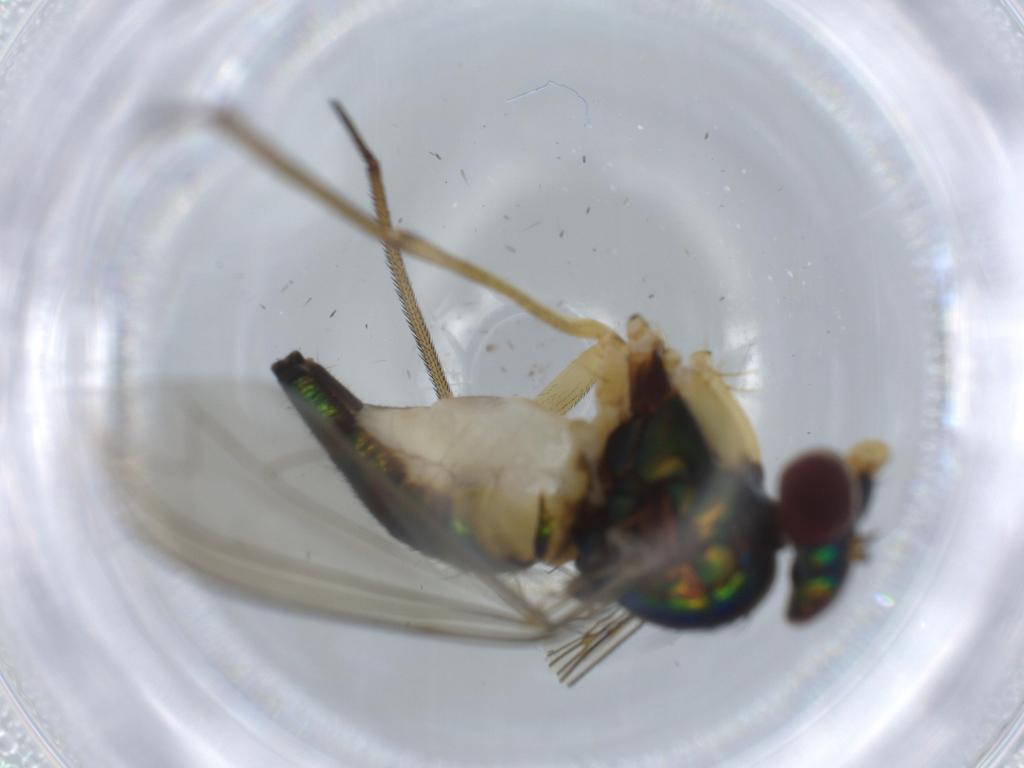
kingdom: Animalia
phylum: Arthropoda
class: Insecta
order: Diptera
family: Dolichopodidae
